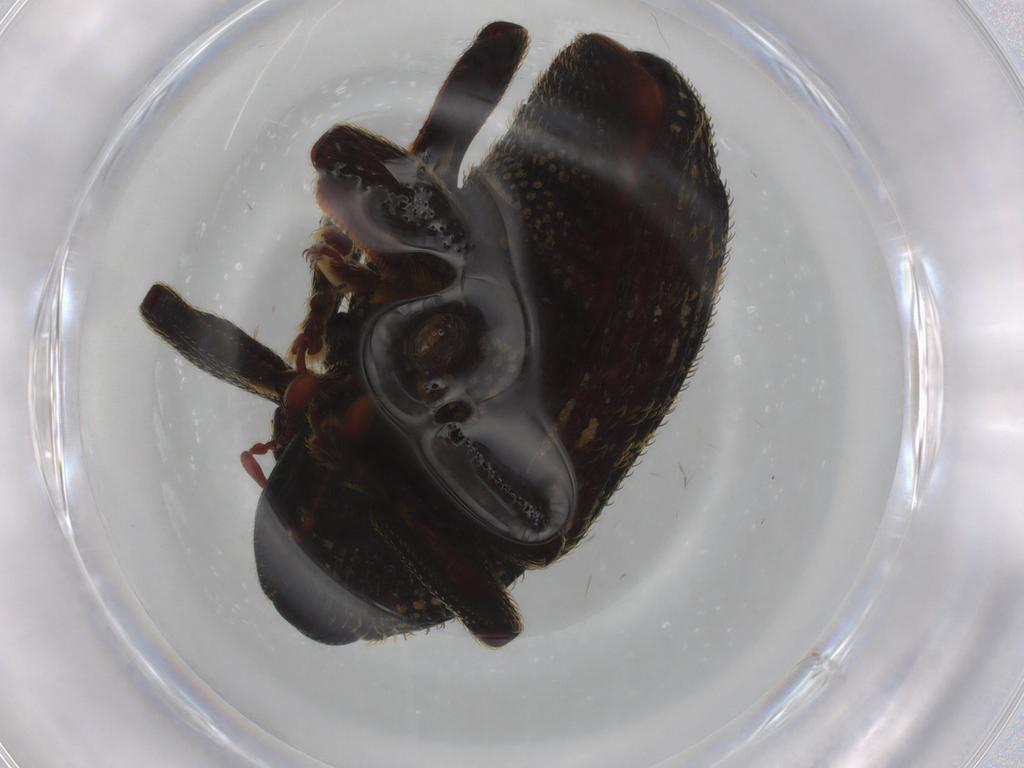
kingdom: Animalia
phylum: Arthropoda
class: Insecta
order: Coleoptera
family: Curculionidae
